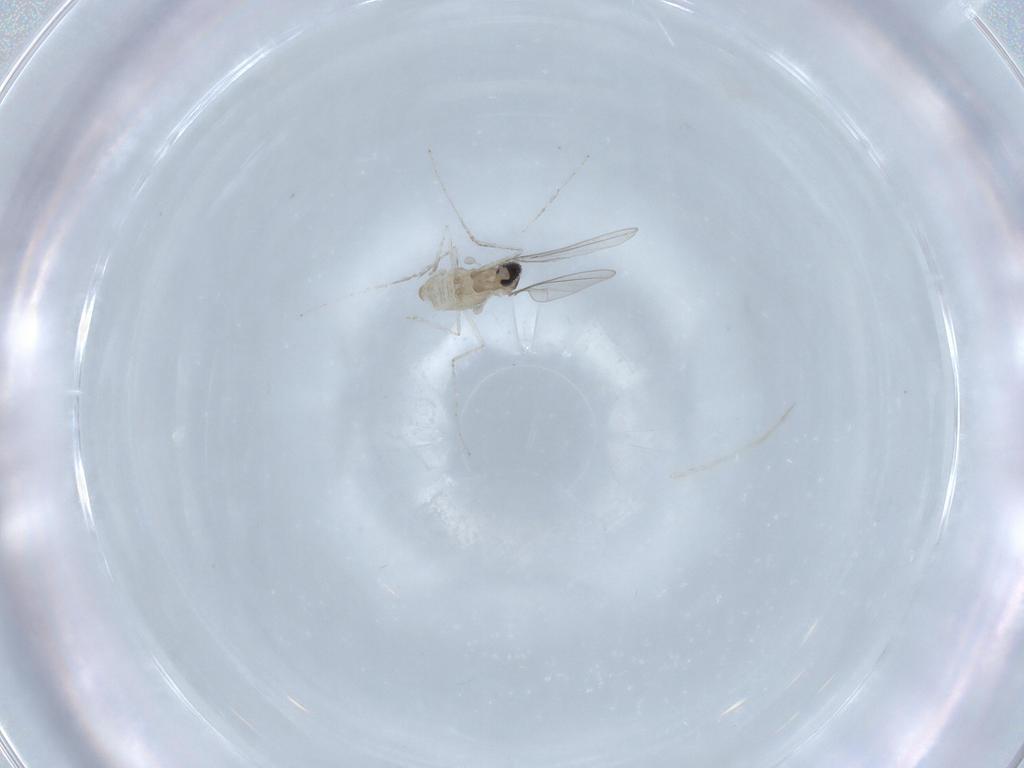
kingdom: Animalia
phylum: Arthropoda
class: Insecta
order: Diptera
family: Cecidomyiidae
